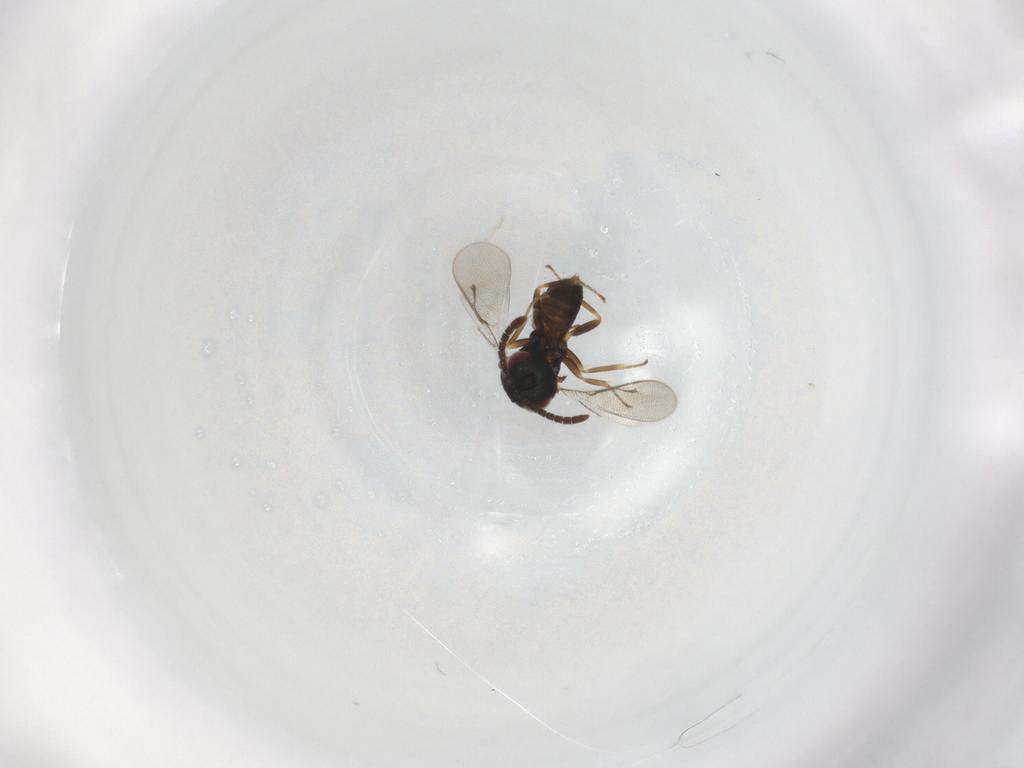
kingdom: Animalia
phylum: Arthropoda
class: Insecta
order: Hymenoptera
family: Pteromalidae
